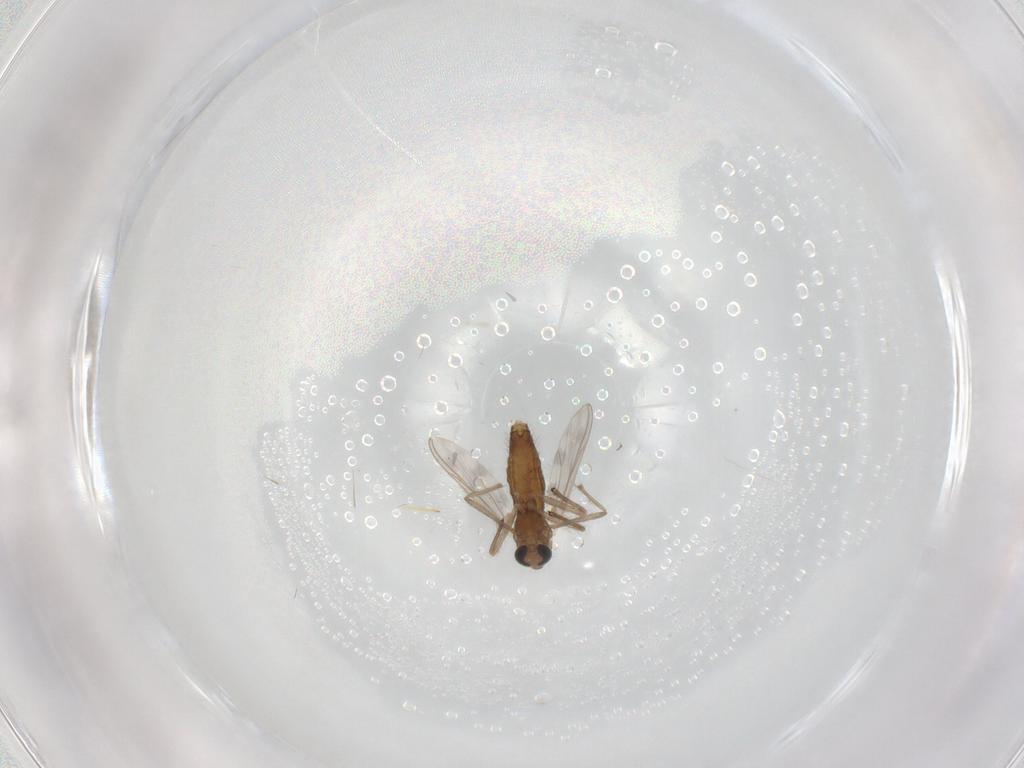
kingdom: Animalia
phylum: Arthropoda
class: Insecta
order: Diptera
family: Chironomidae
